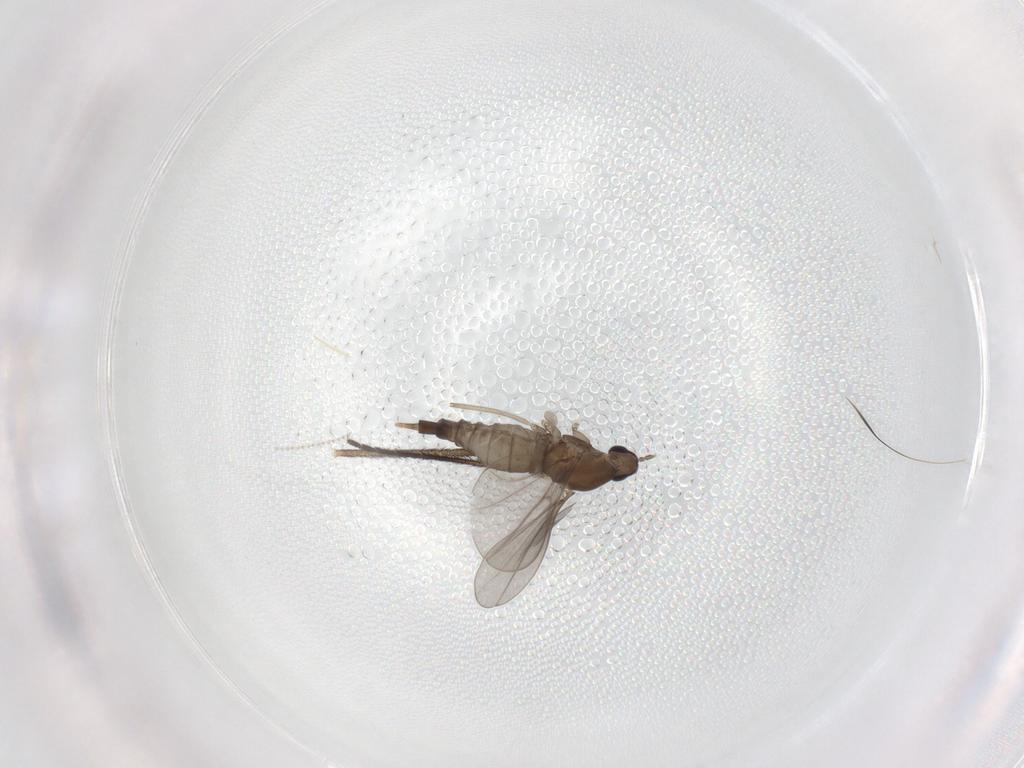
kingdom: Animalia
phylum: Arthropoda
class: Insecta
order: Diptera
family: Cecidomyiidae
